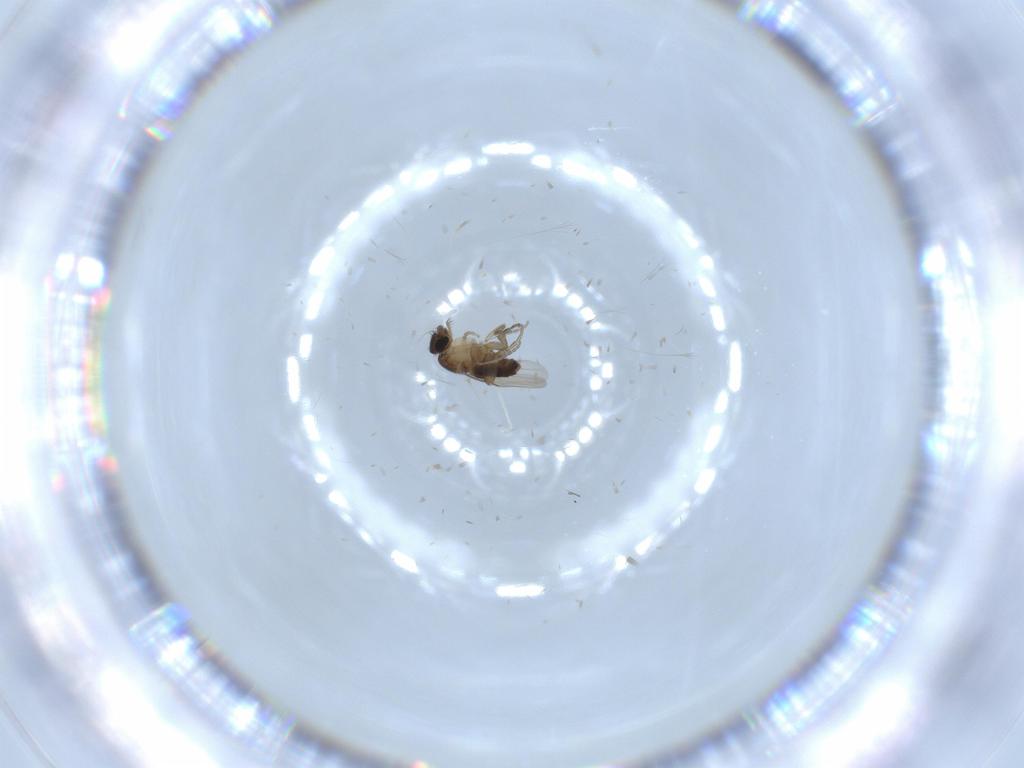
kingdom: Animalia
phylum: Arthropoda
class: Insecta
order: Diptera
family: Phoridae
